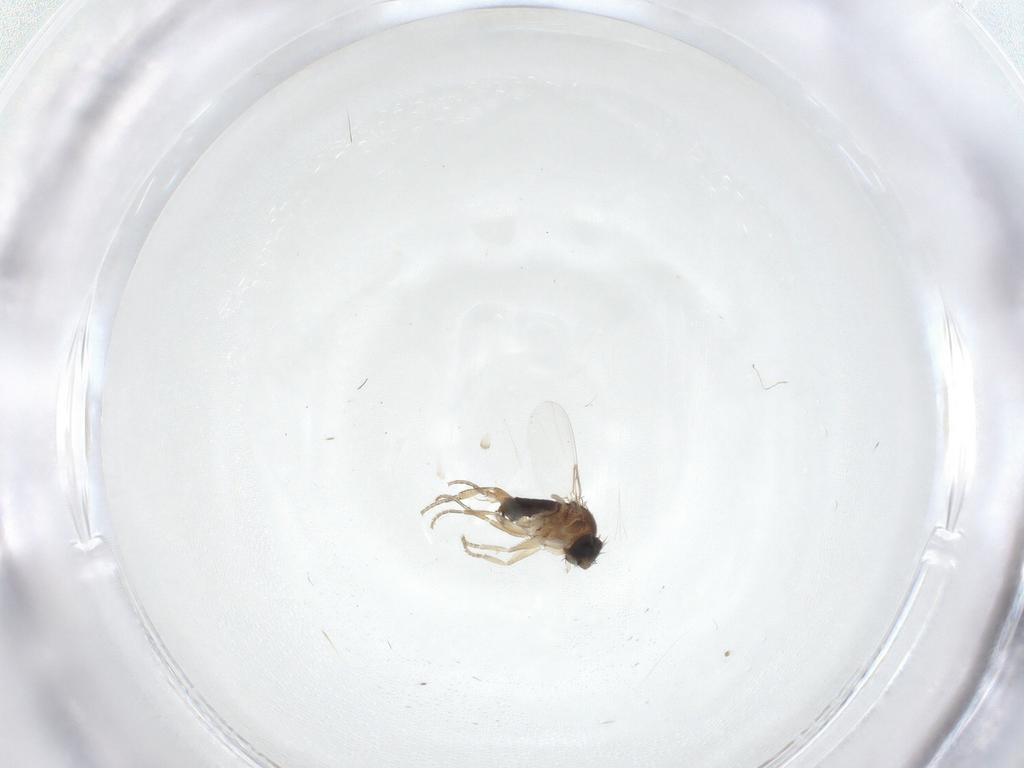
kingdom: Animalia
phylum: Arthropoda
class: Insecta
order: Diptera
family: Phoridae
